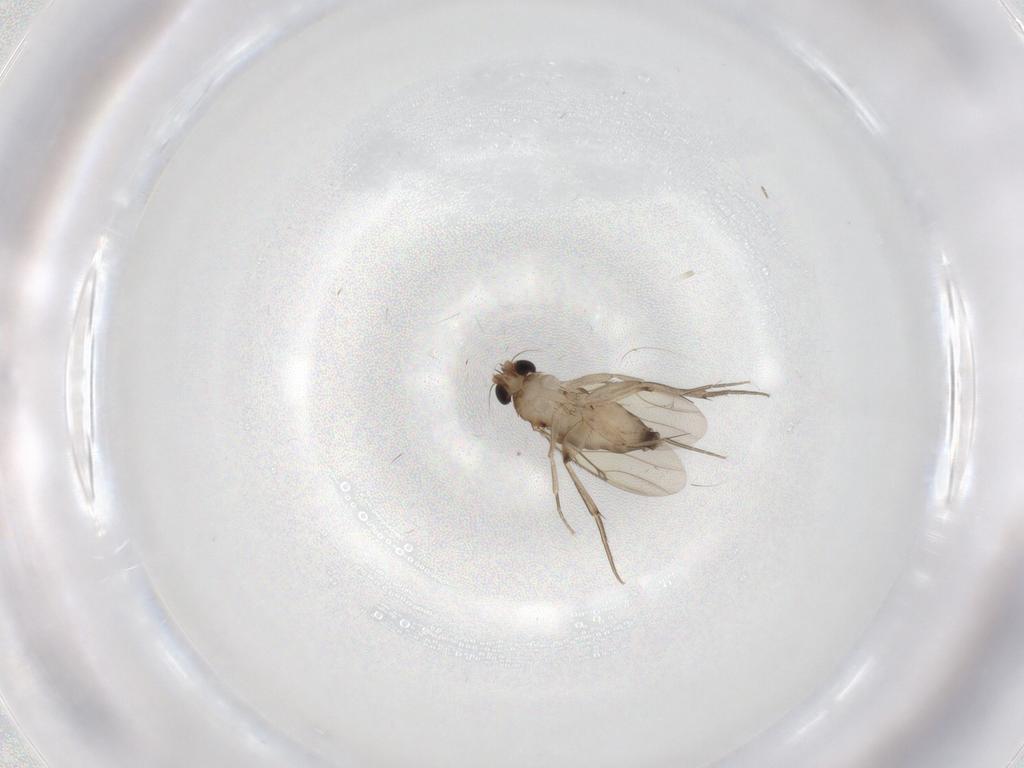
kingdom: Animalia
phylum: Arthropoda
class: Insecta
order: Diptera
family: Phoridae
